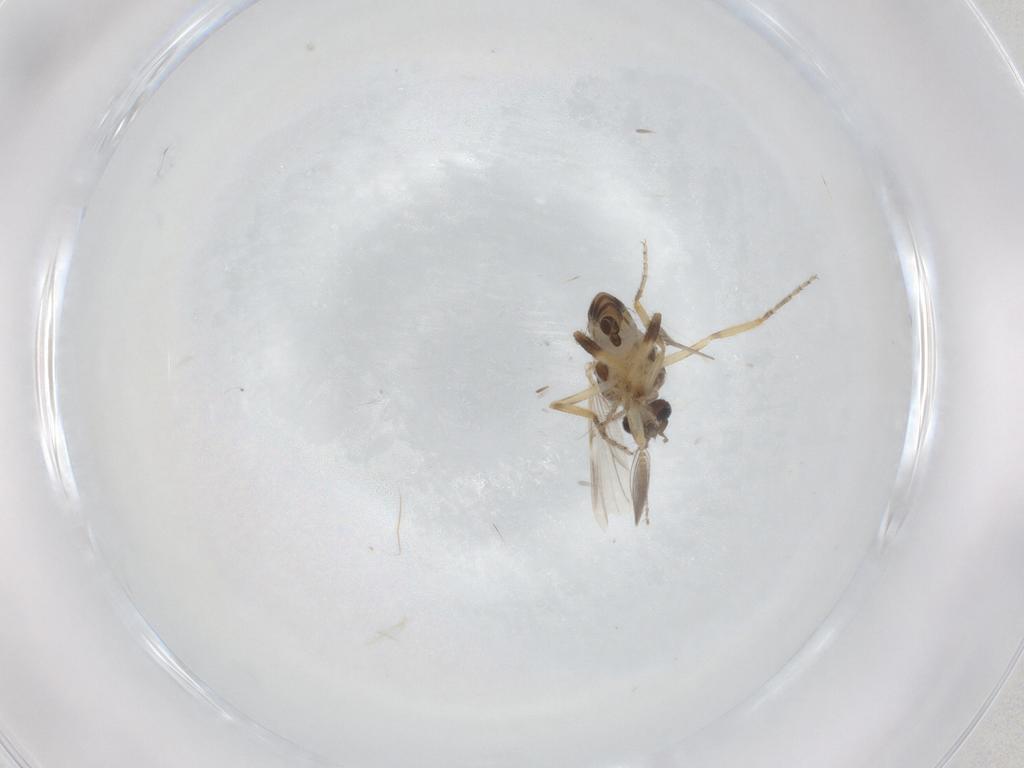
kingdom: Animalia
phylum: Arthropoda
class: Insecta
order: Diptera
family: Ceratopogonidae
